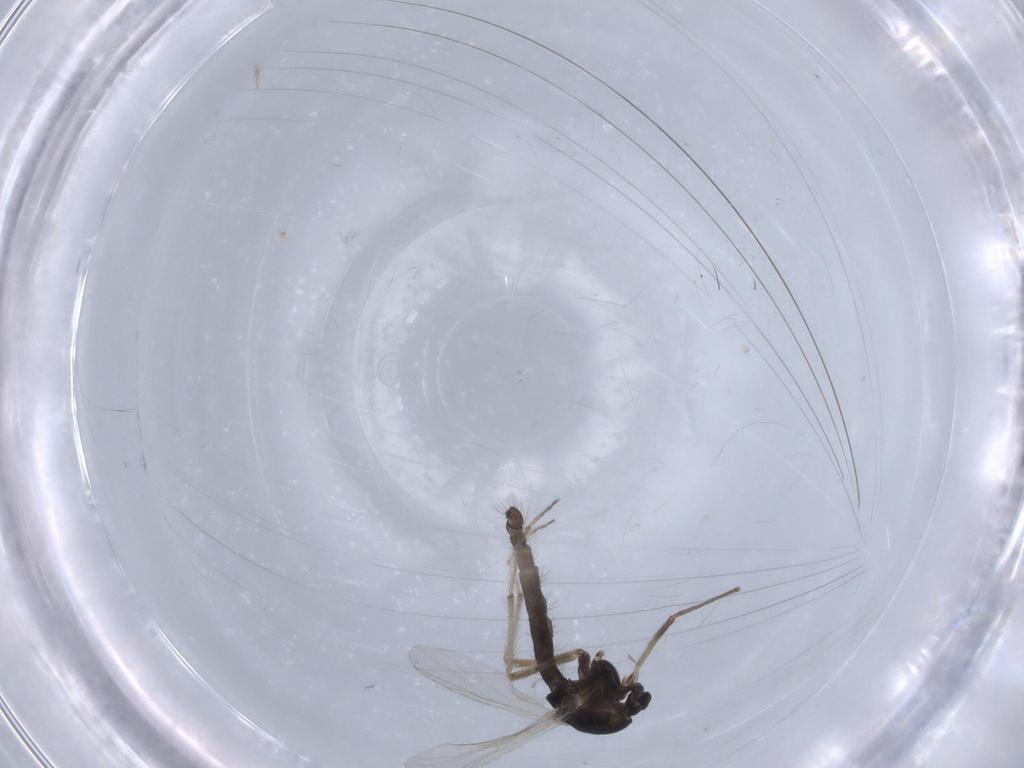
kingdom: Animalia
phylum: Arthropoda
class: Insecta
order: Diptera
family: Chironomidae
